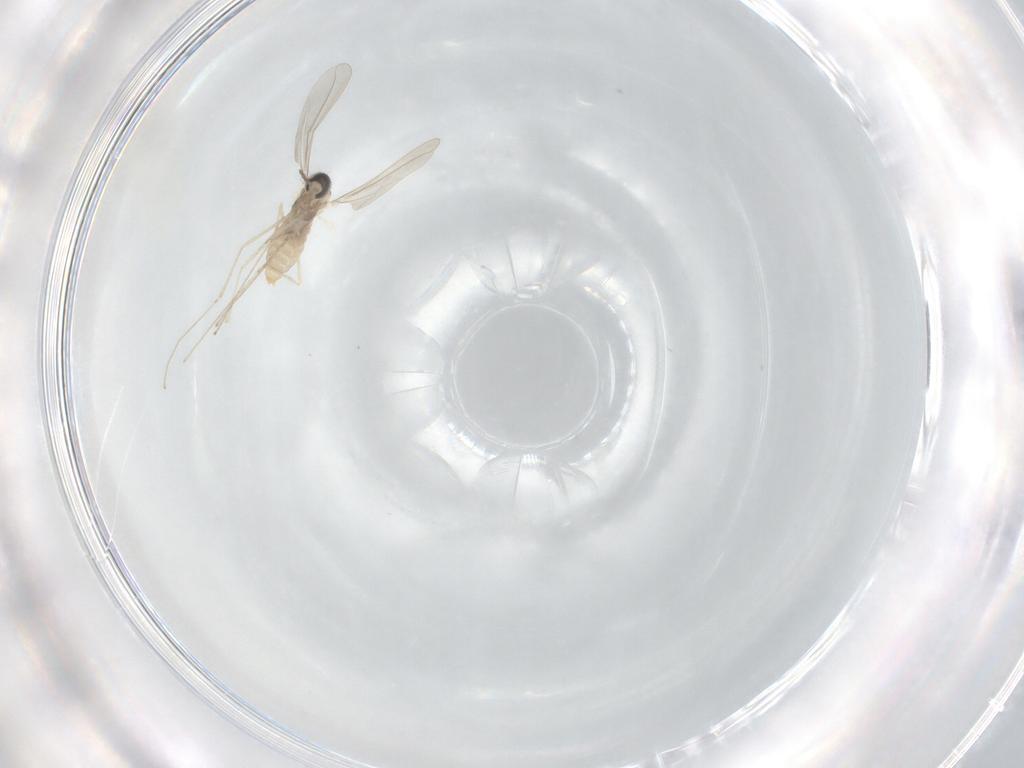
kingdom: Animalia
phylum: Arthropoda
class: Insecta
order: Diptera
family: Cecidomyiidae
